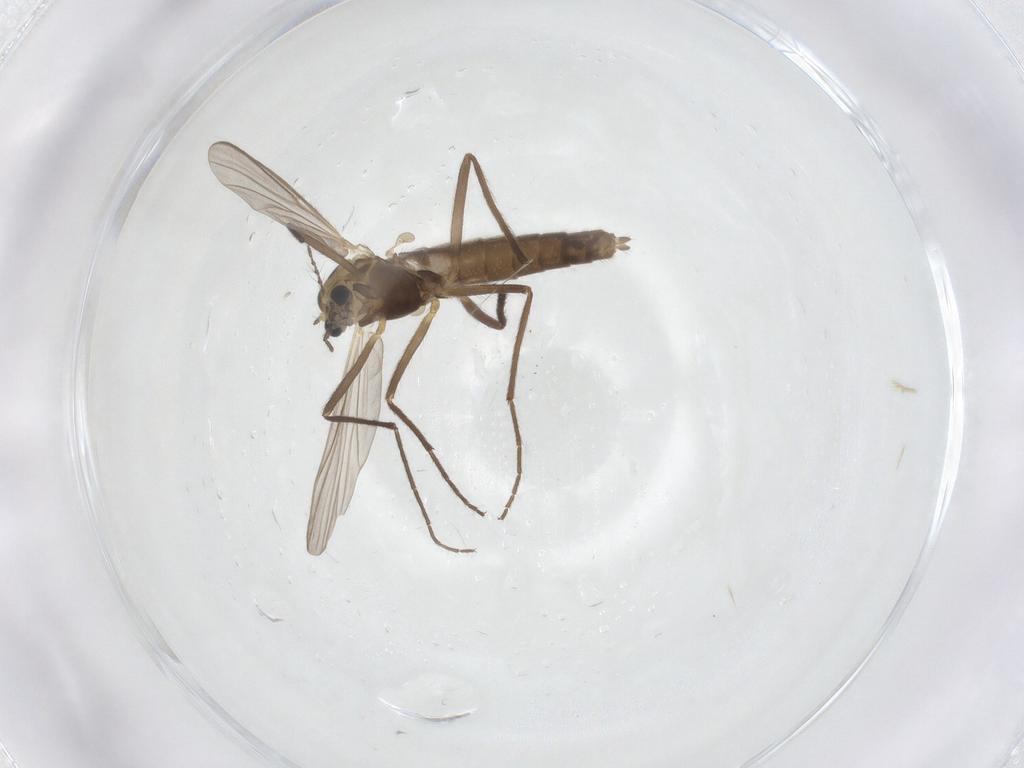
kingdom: Animalia
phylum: Arthropoda
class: Insecta
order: Diptera
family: Chironomidae
